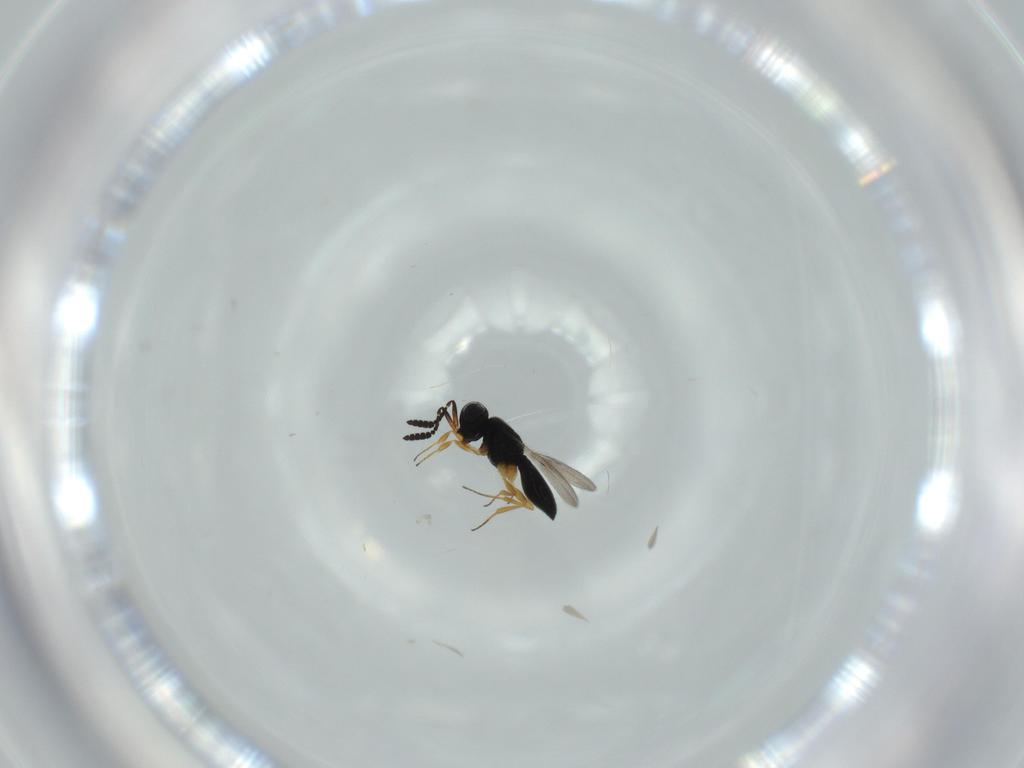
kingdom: Animalia
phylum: Arthropoda
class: Insecta
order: Hymenoptera
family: Scelionidae
